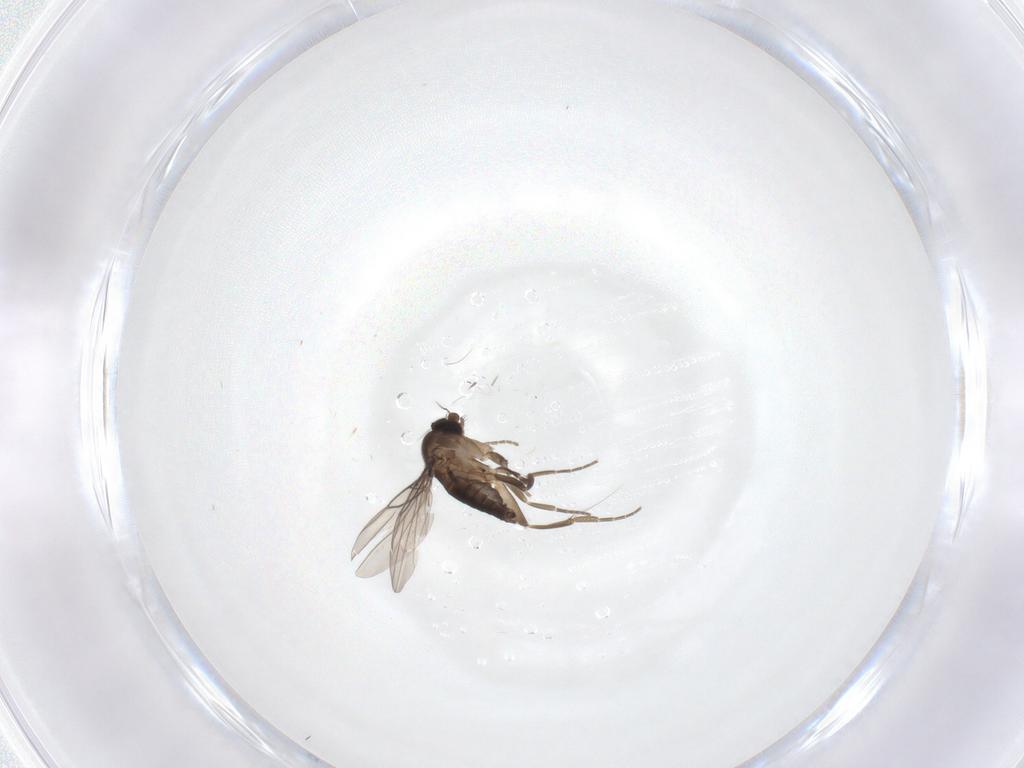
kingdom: Animalia
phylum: Arthropoda
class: Insecta
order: Diptera
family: Phoridae
